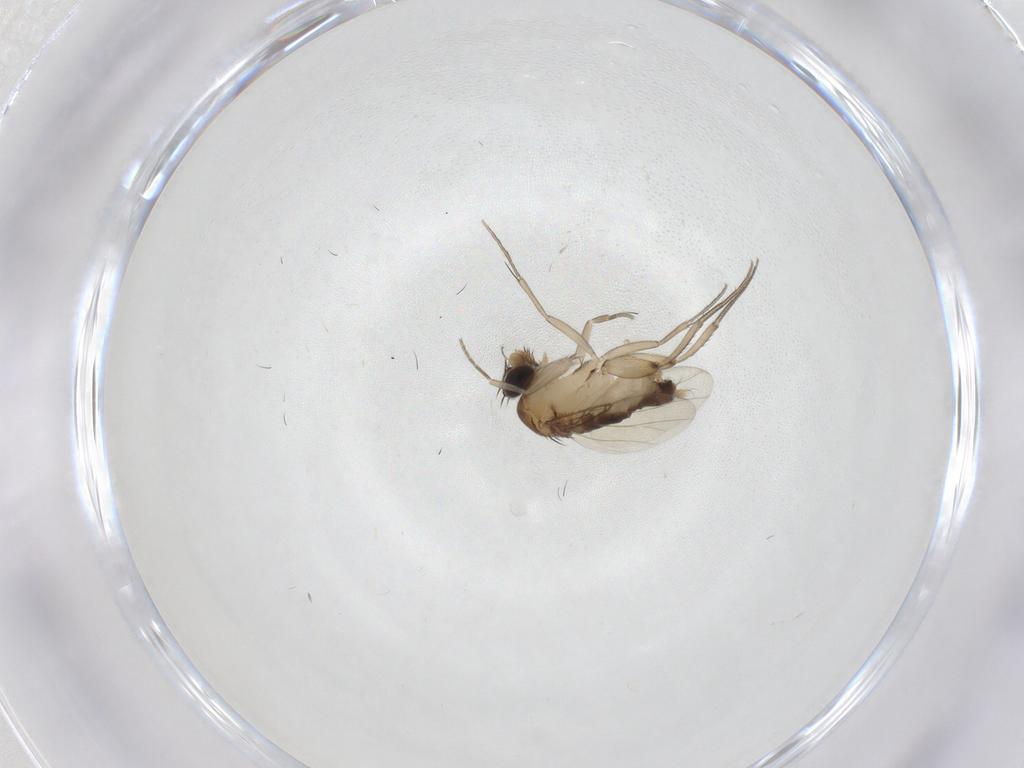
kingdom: Animalia
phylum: Arthropoda
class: Insecta
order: Diptera
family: Phoridae
